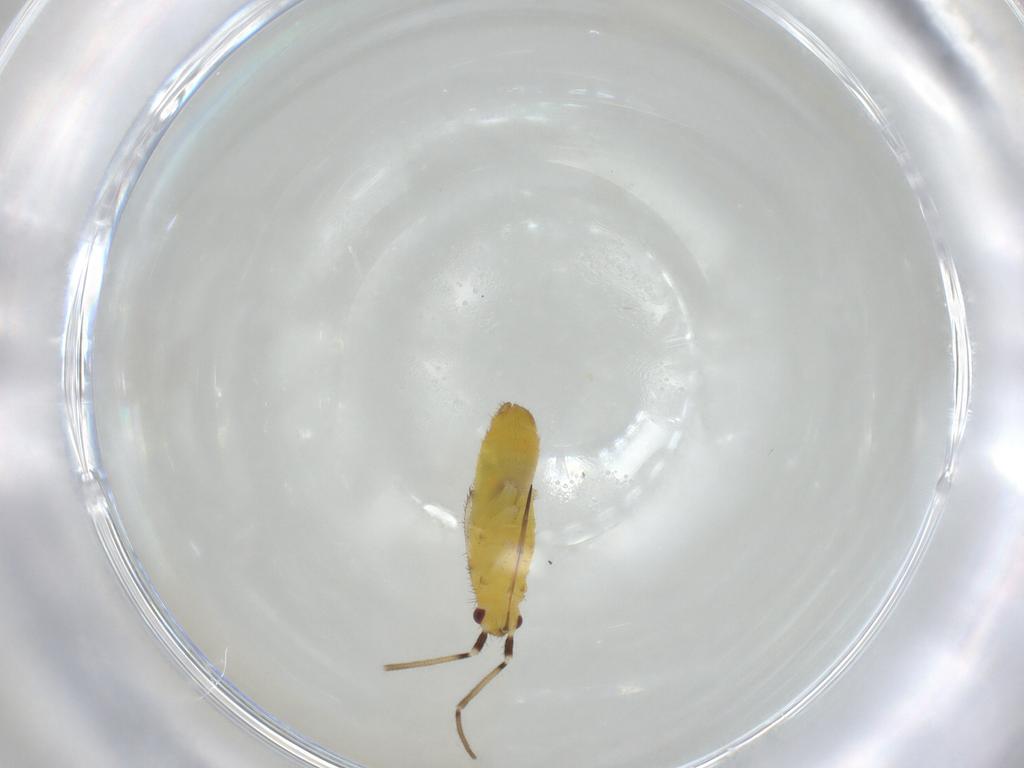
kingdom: Animalia
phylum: Arthropoda
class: Insecta
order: Hemiptera
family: Miridae
